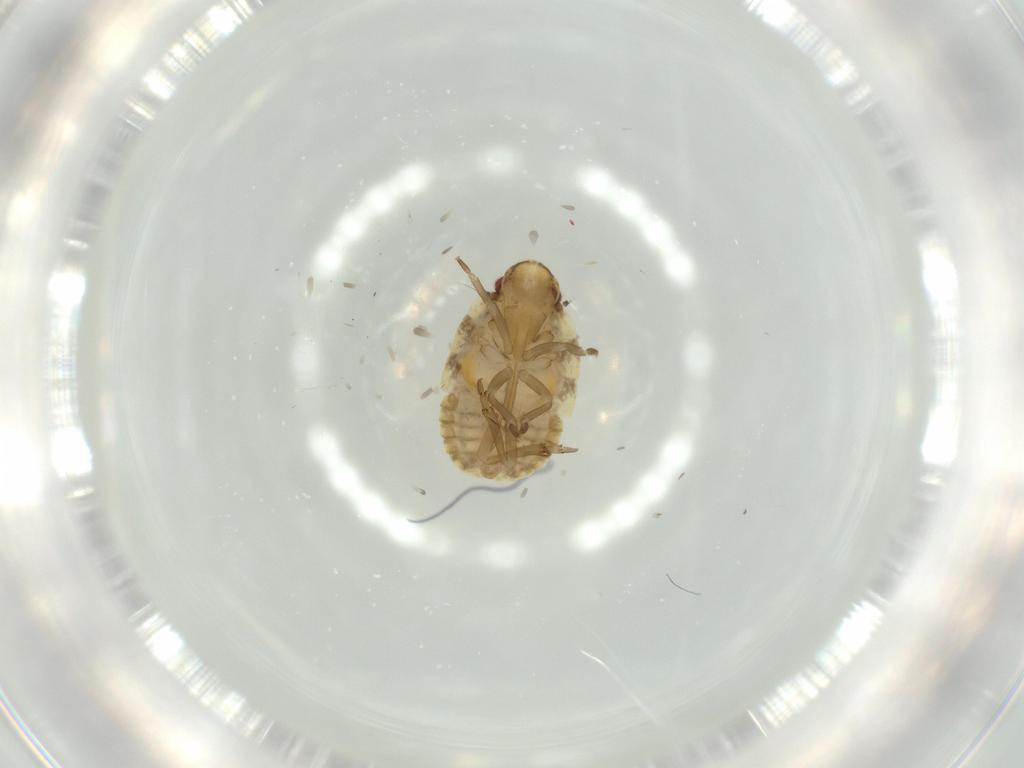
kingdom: Animalia
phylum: Arthropoda
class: Insecta
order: Hemiptera
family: Flatidae
